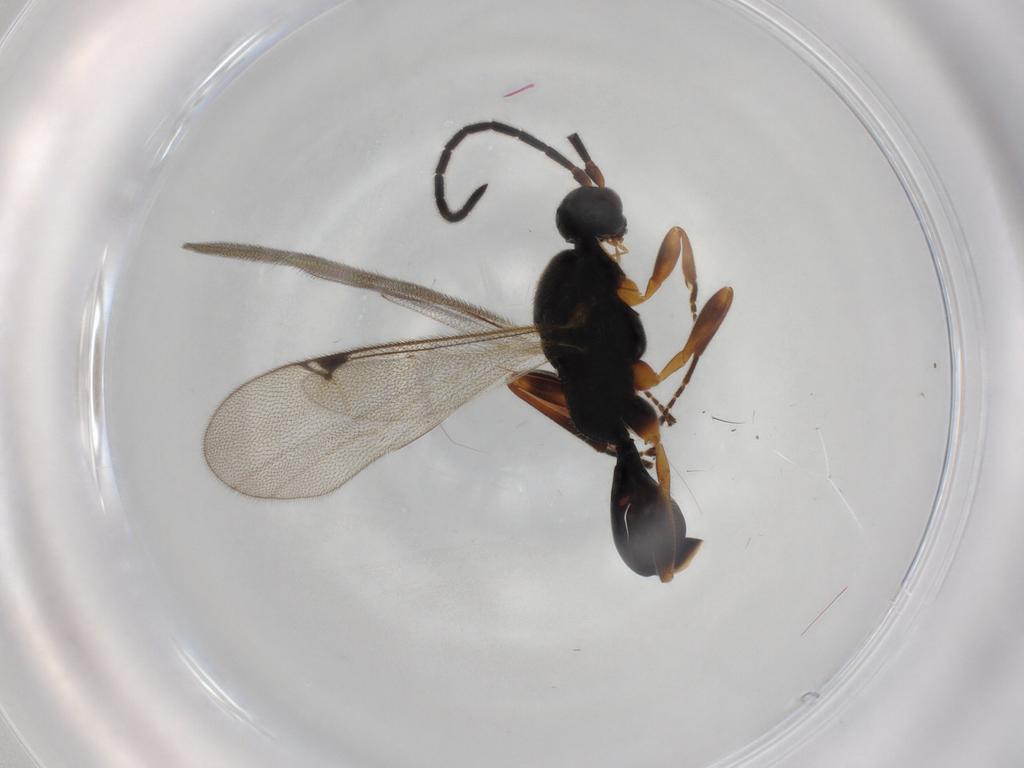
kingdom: Animalia
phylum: Arthropoda
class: Insecta
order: Hymenoptera
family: Proctotrupidae
